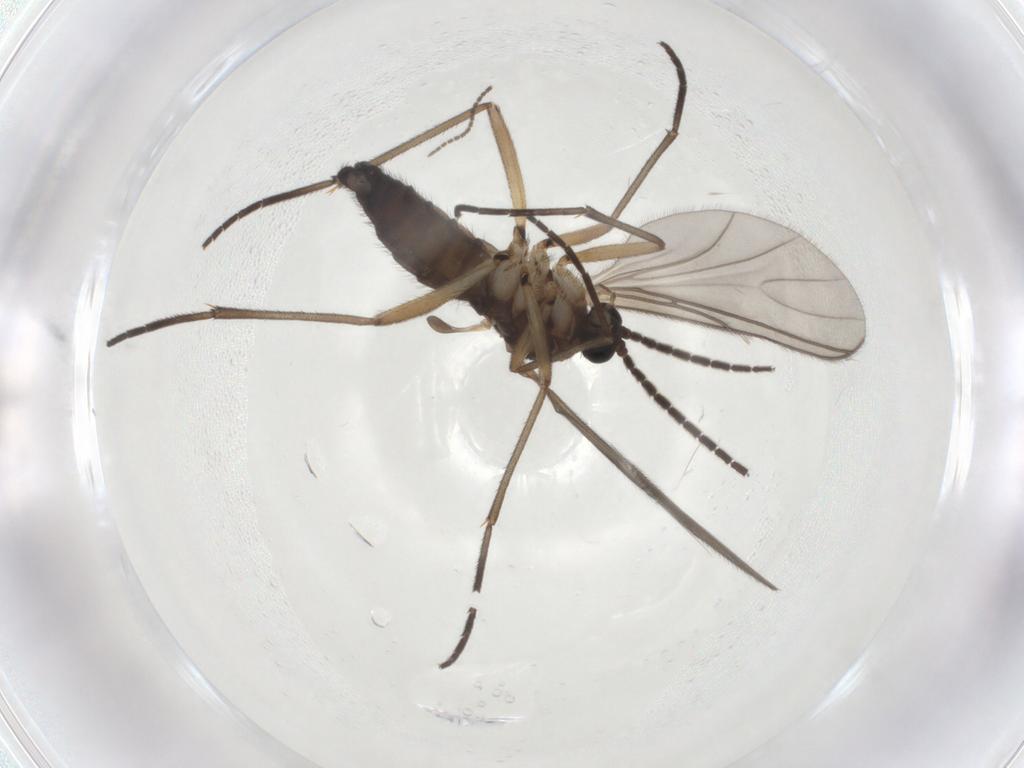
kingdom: Animalia
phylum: Arthropoda
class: Insecta
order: Diptera
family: Sciaridae
